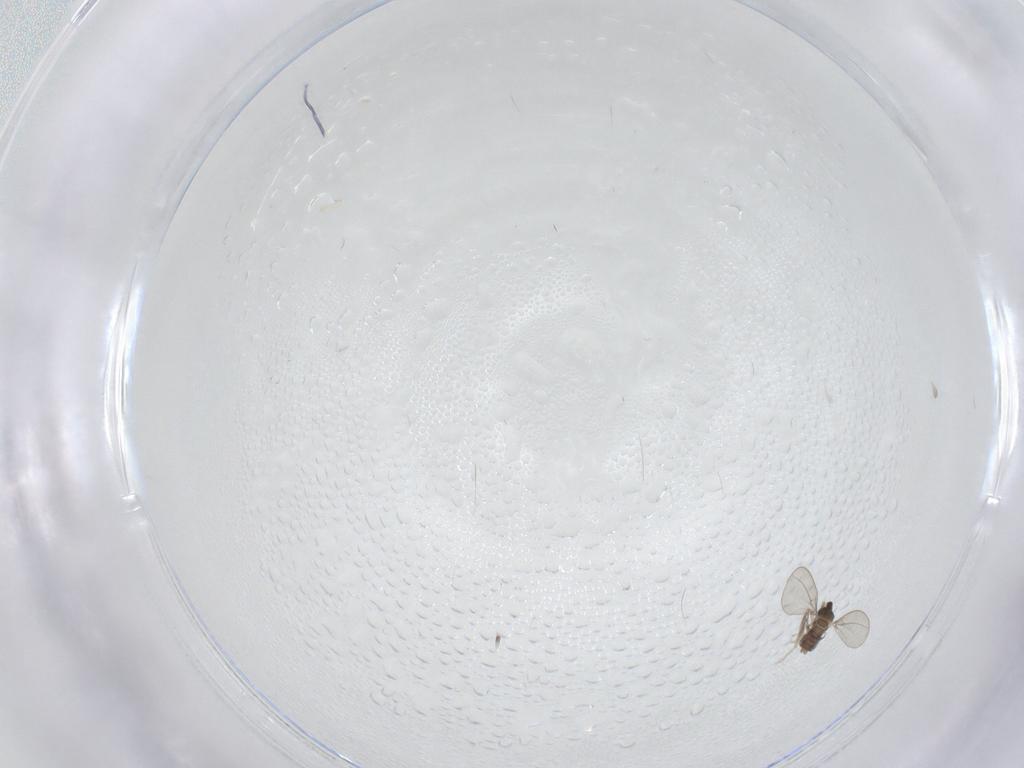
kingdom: Animalia
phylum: Arthropoda
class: Insecta
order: Diptera
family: Cecidomyiidae
